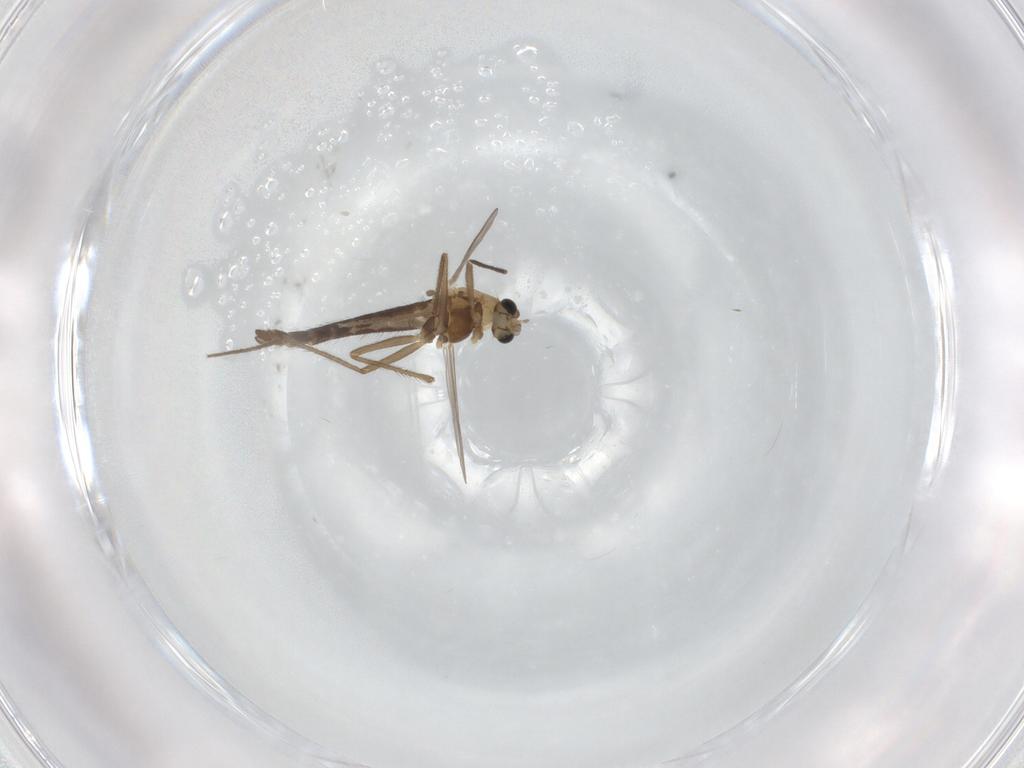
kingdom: Animalia
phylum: Arthropoda
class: Insecta
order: Diptera
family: Chironomidae
